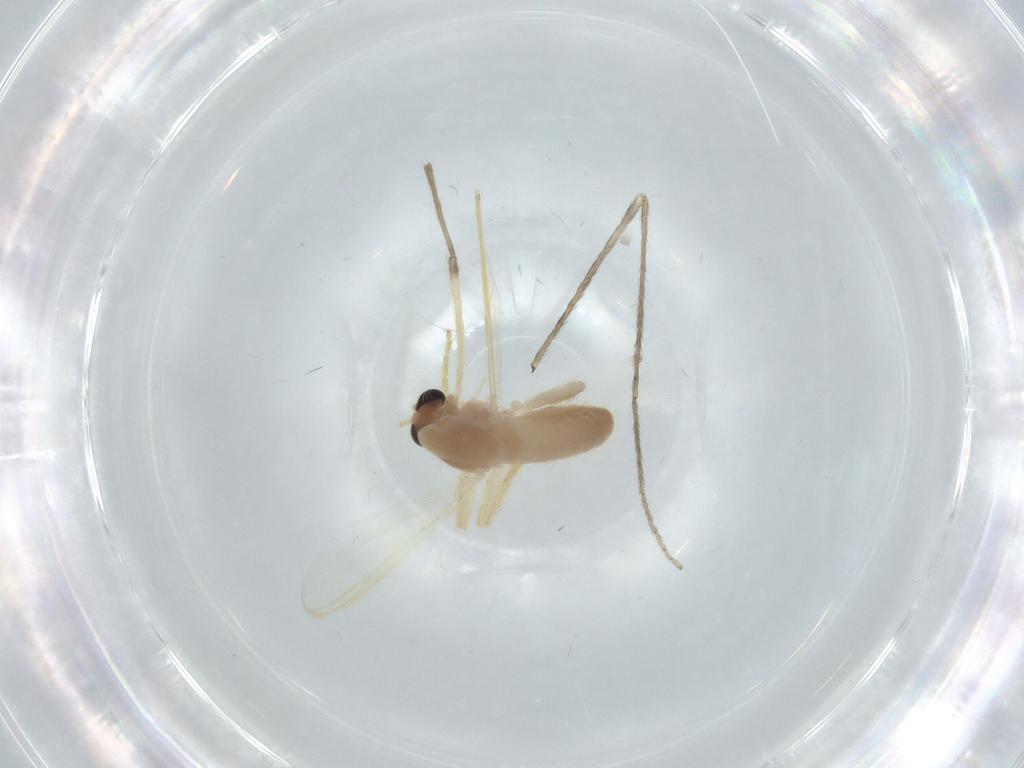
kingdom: Animalia
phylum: Arthropoda
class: Insecta
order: Diptera
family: Chironomidae
